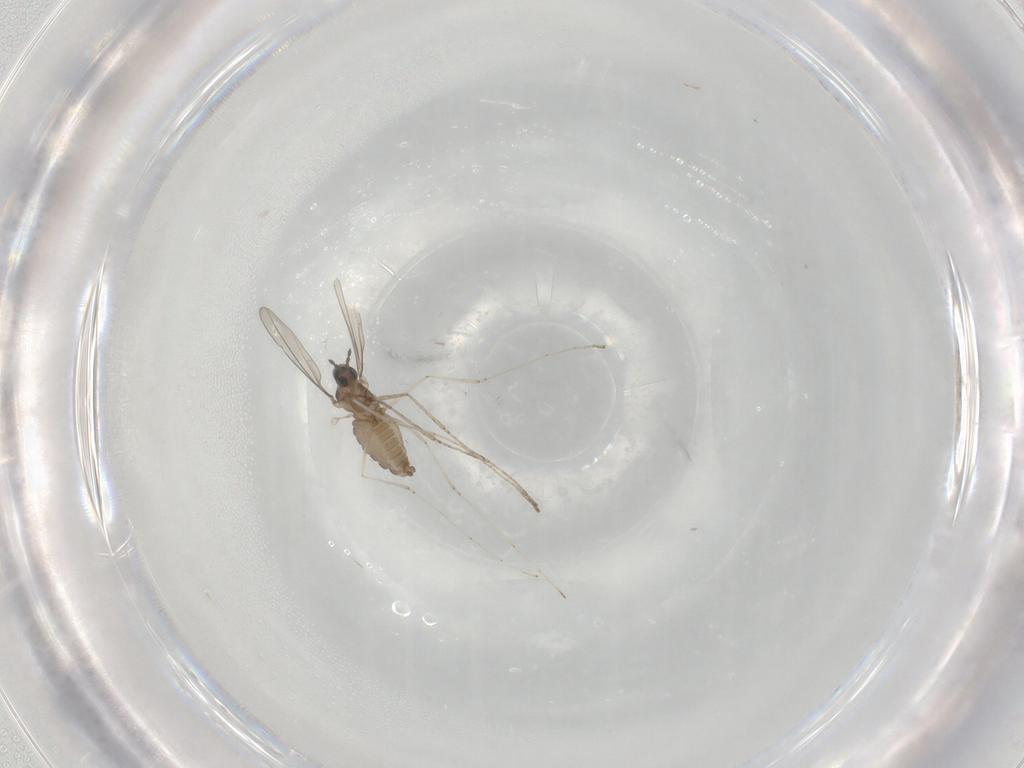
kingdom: Animalia
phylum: Arthropoda
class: Insecta
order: Diptera
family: Cecidomyiidae
